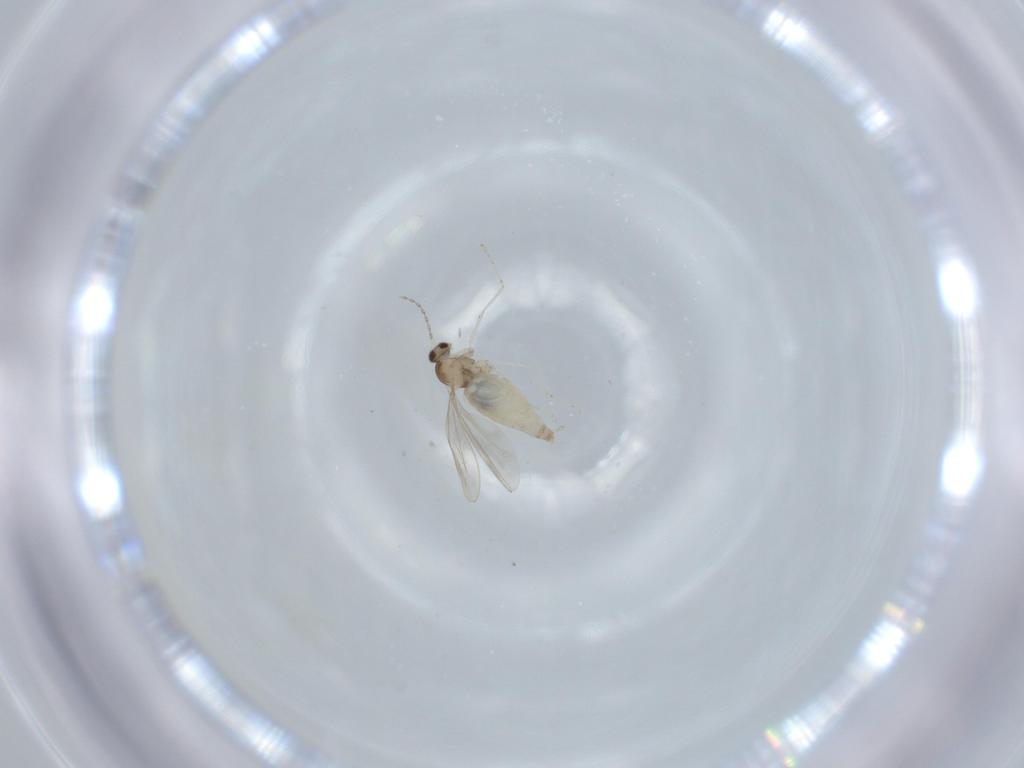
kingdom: Animalia
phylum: Arthropoda
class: Insecta
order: Diptera
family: Cecidomyiidae
